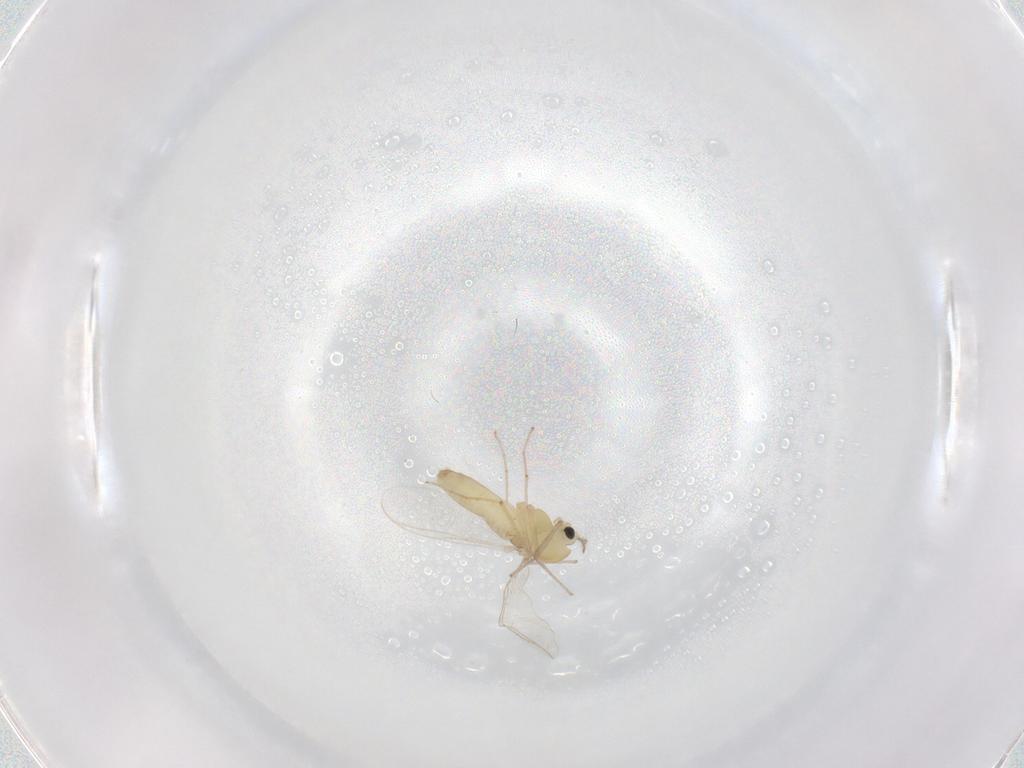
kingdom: Animalia
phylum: Arthropoda
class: Insecta
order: Diptera
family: Chironomidae
